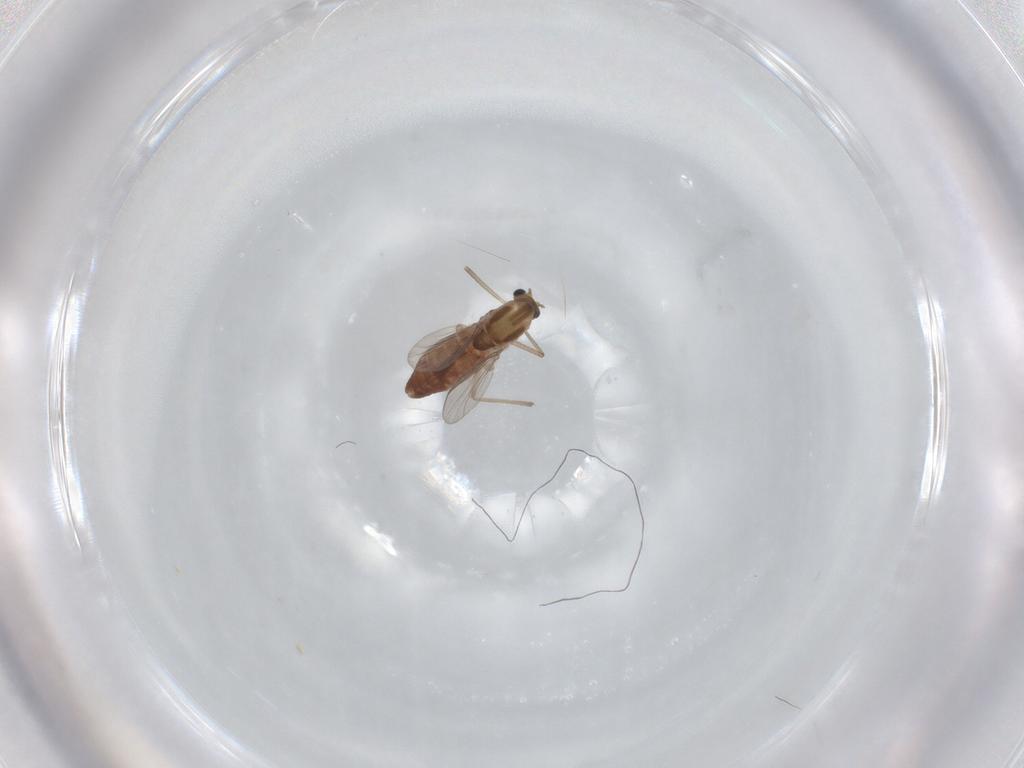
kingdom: Animalia
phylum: Arthropoda
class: Insecta
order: Diptera
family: Chironomidae
